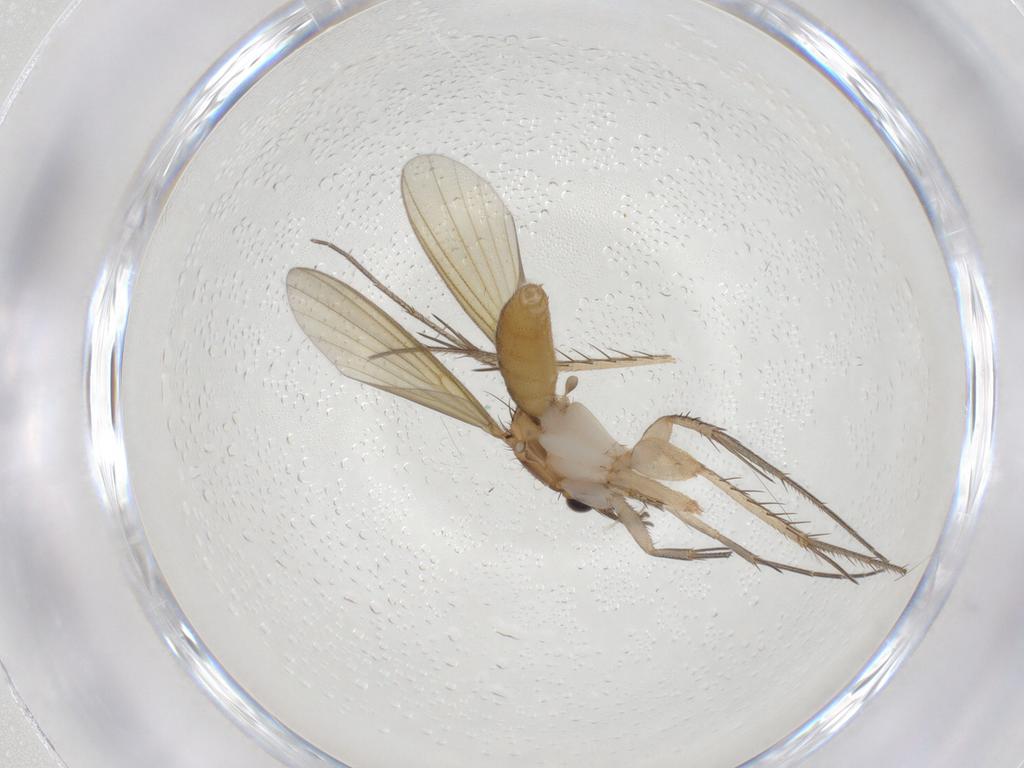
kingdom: Animalia
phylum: Arthropoda
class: Insecta
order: Diptera
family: Mycetophilidae
